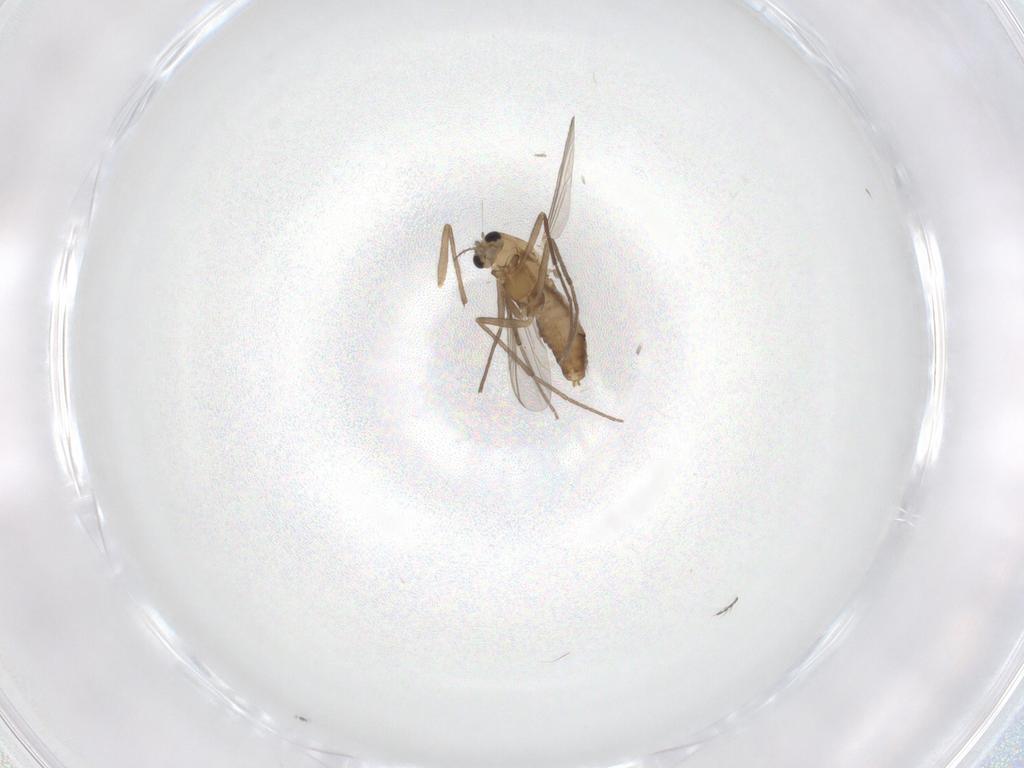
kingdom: Animalia
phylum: Arthropoda
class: Insecta
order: Diptera
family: Chironomidae
